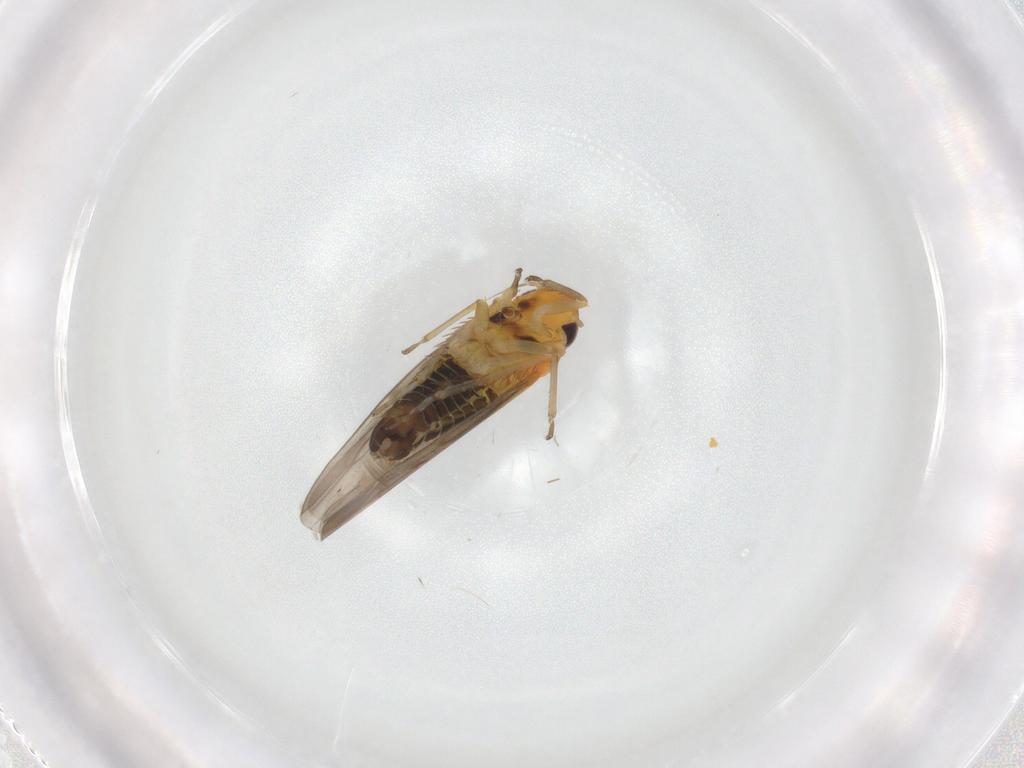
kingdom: Animalia
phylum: Arthropoda
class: Insecta
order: Hemiptera
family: Cicadellidae
